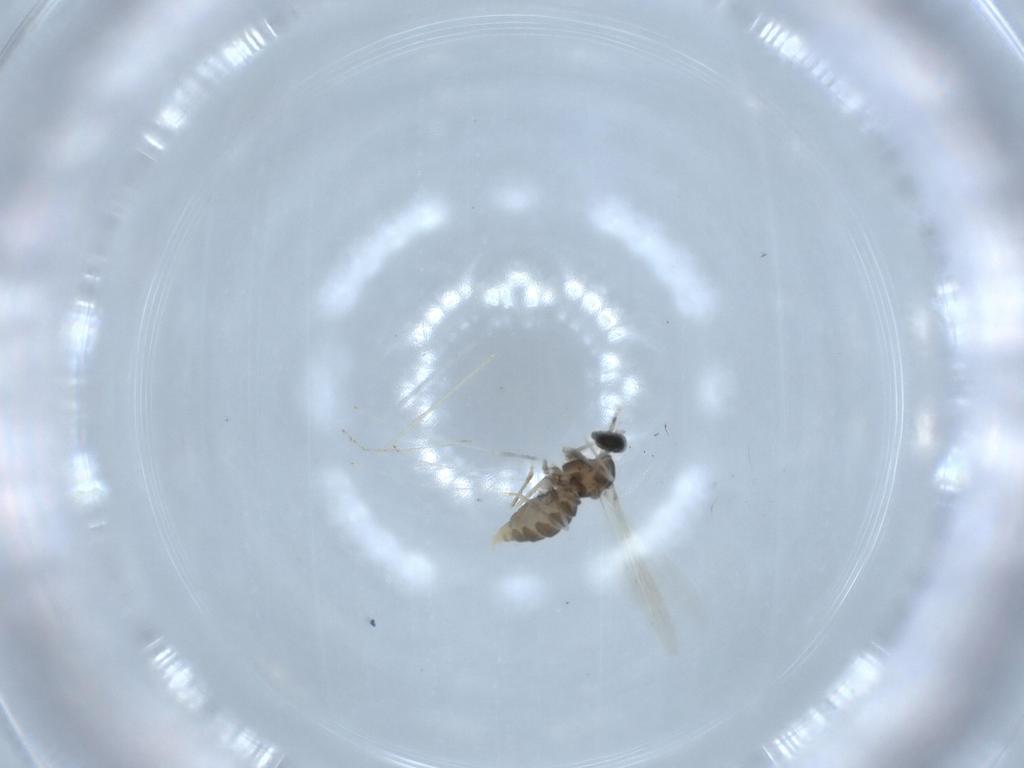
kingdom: Animalia
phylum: Arthropoda
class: Insecta
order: Diptera
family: Cecidomyiidae
